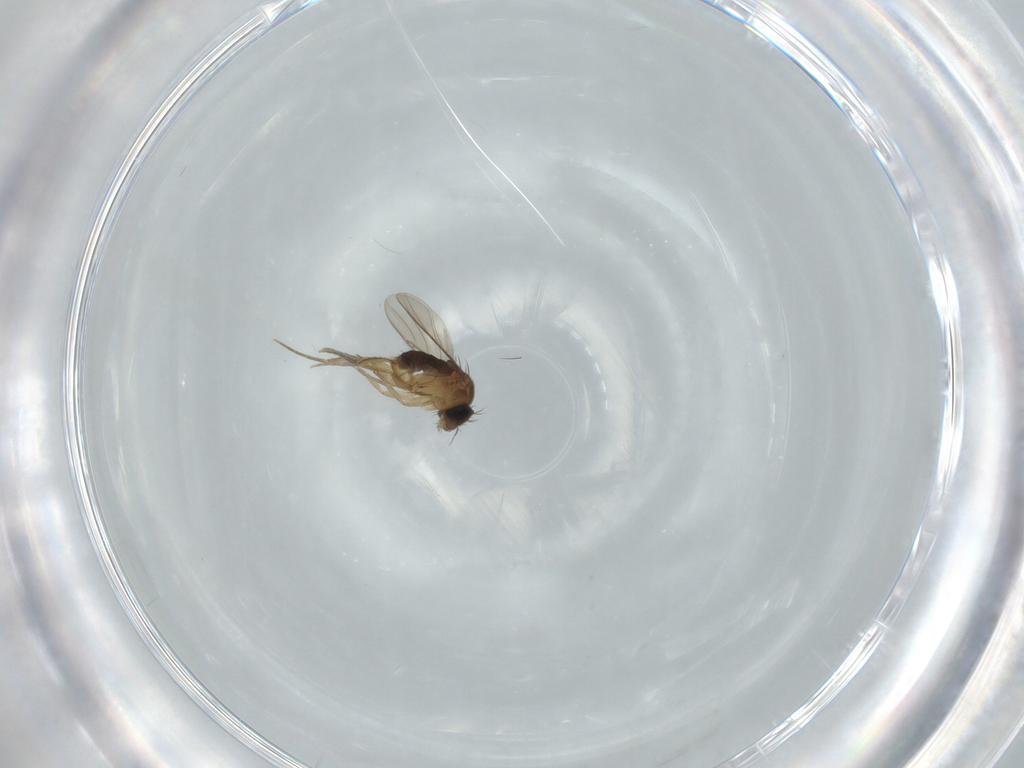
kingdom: Animalia
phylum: Arthropoda
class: Insecta
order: Diptera
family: Phoridae
